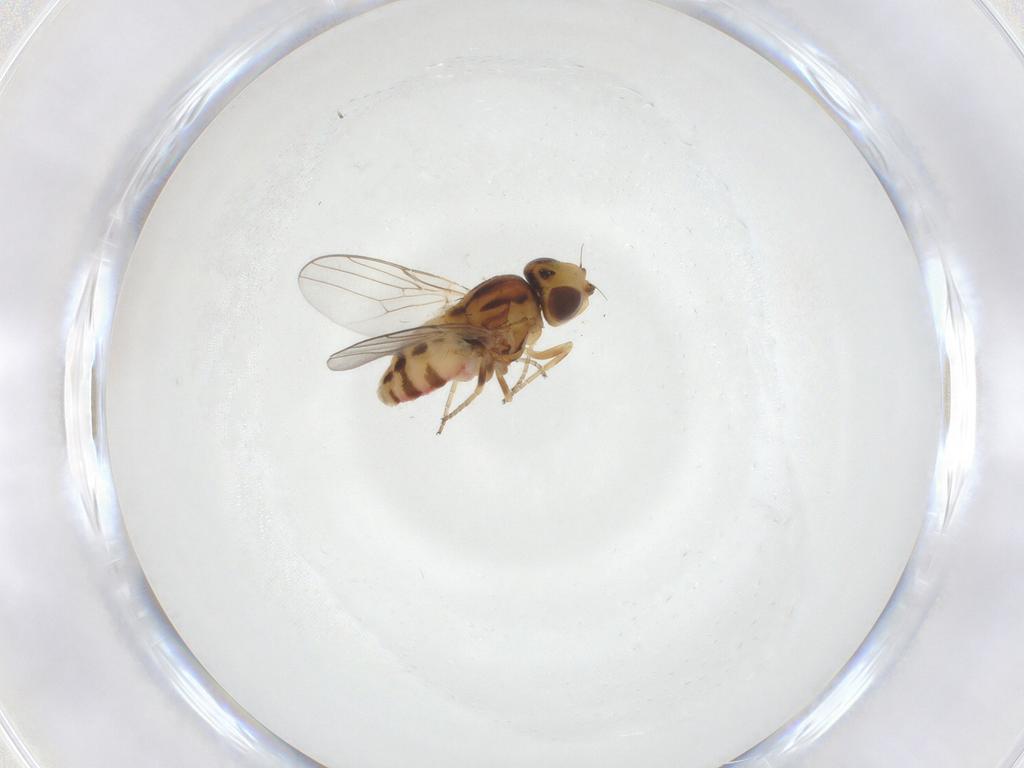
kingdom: Animalia
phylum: Arthropoda
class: Insecta
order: Diptera
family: Chloropidae
